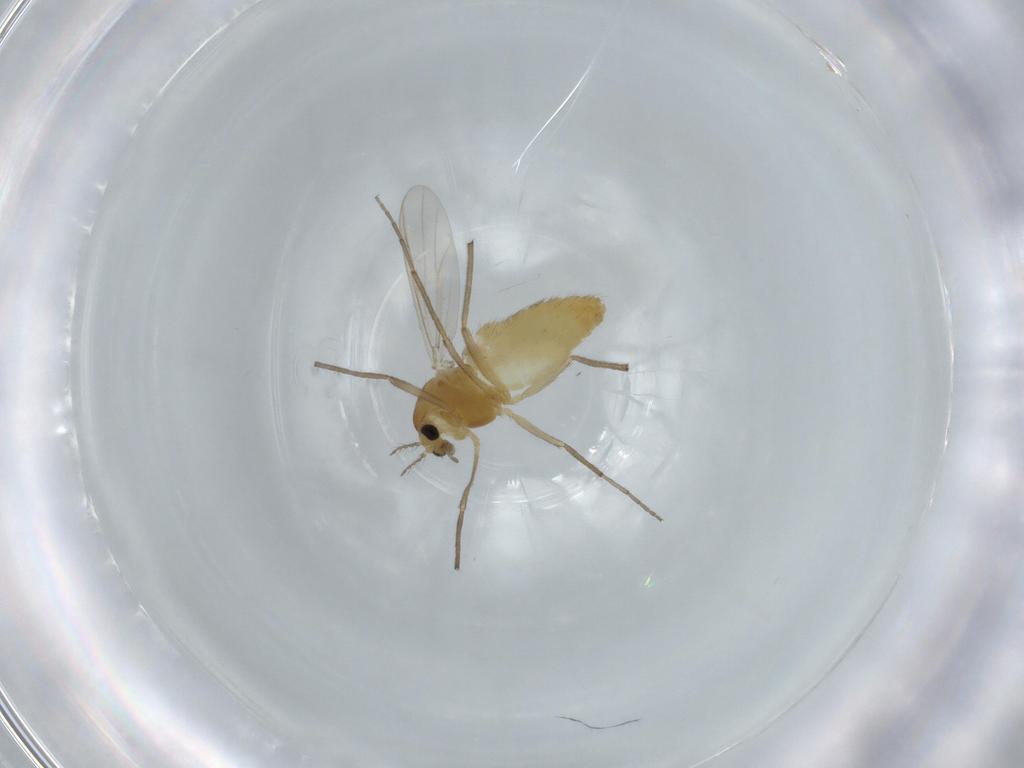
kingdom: Animalia
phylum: Arthropoda
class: Insecta
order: Diptera
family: Chironomidae
